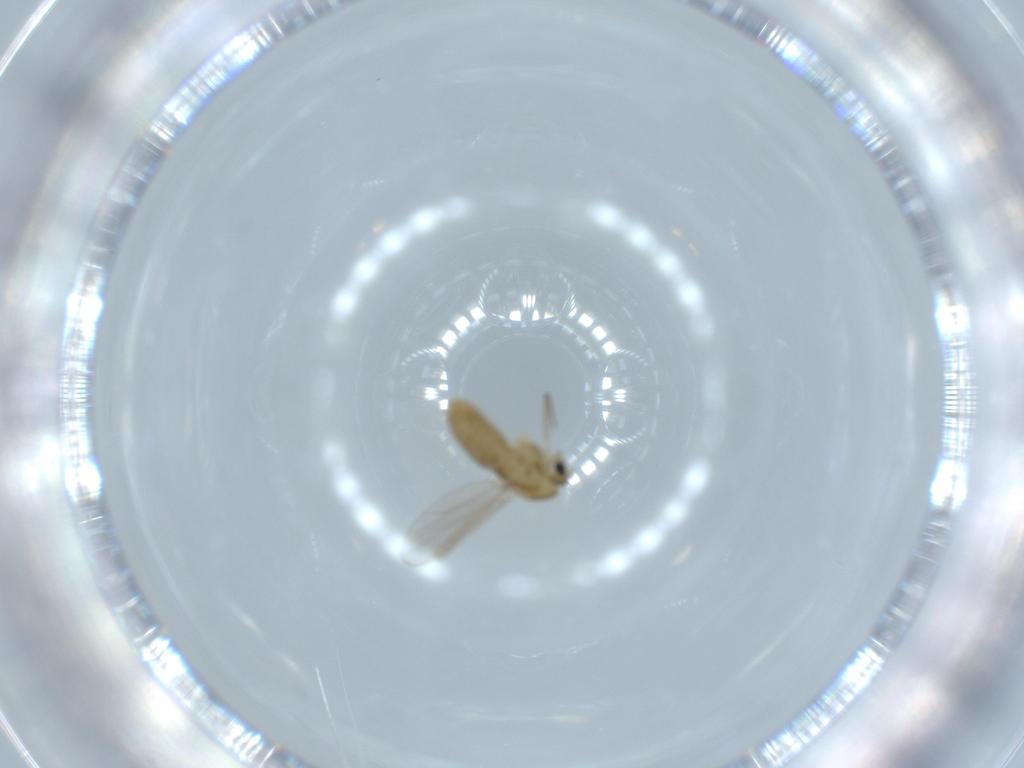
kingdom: Animalia
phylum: Arthropoda
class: Insecta
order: Diptera
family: Chironomidae
